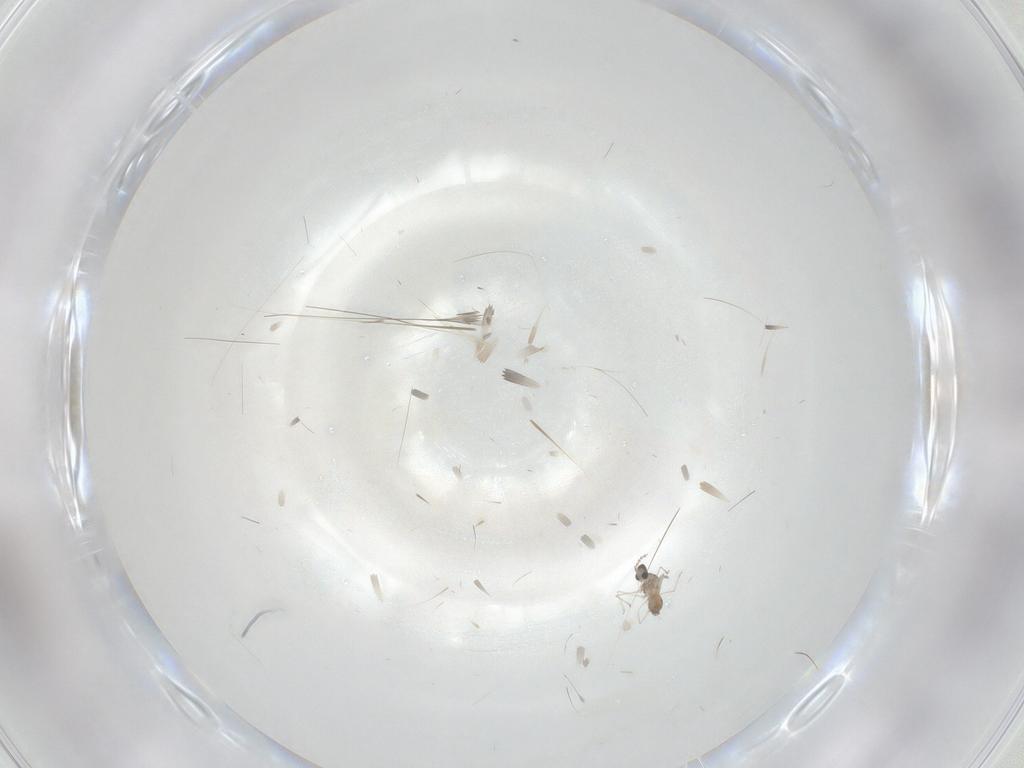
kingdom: Animalia
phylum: Arthropoda
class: Insecta
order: Diptera
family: Cecidomyiidae
